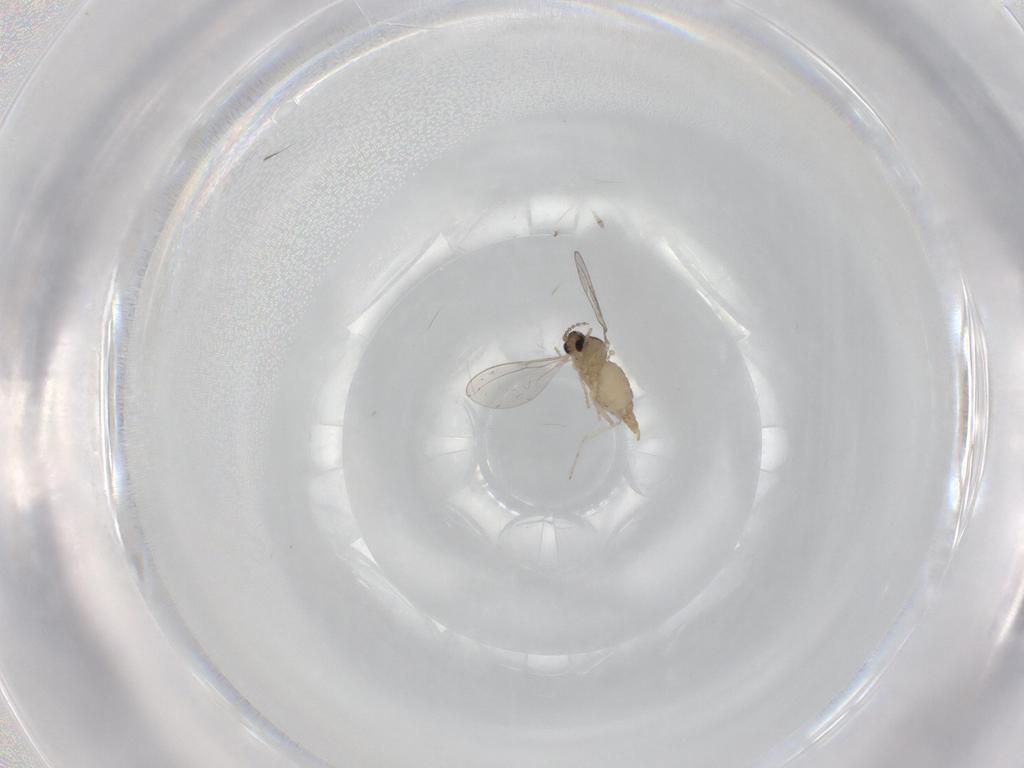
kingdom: Animalia
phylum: Arthropoda
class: Insecta
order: Diptera
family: Cecidomyiidae
